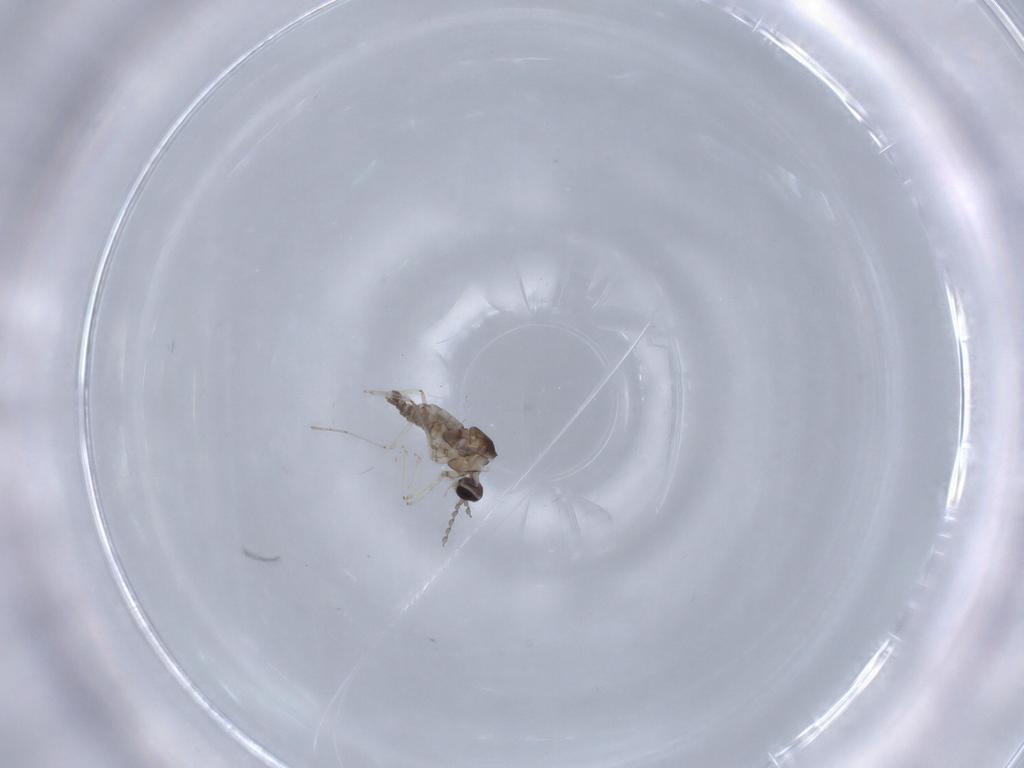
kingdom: Animalia
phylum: Arthropoda
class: Insecta
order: Diptera
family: Cecidomyiidae
